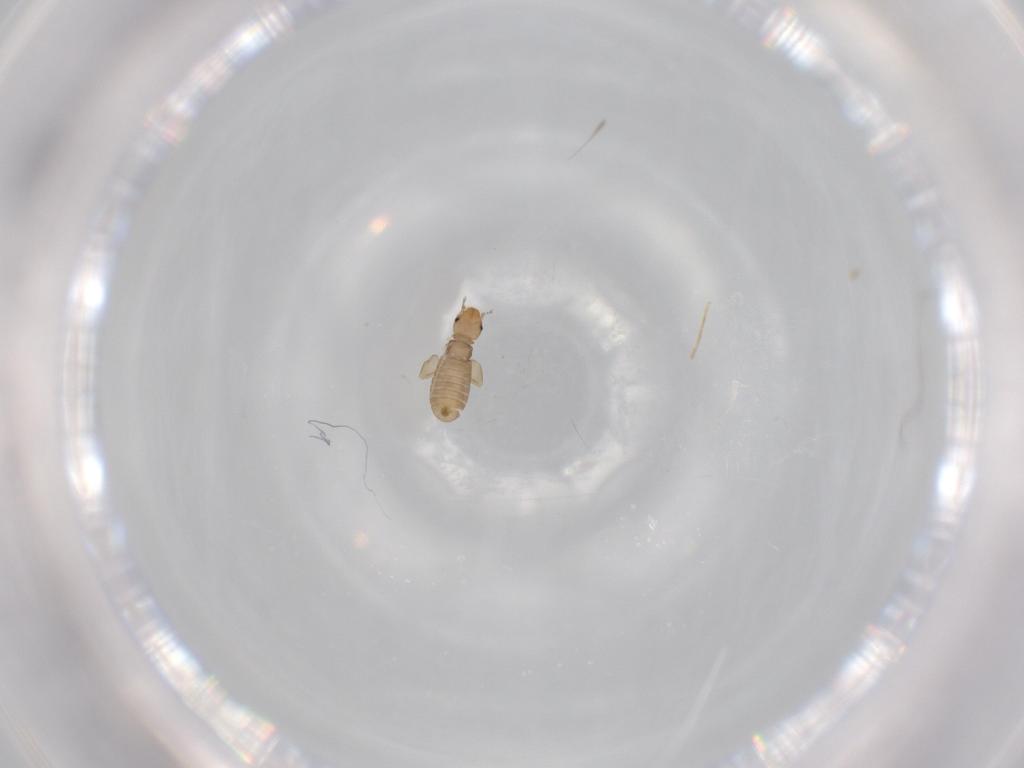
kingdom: Animalia
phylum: Arthropoda
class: Insecta
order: Psocodea
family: Liposcelididae
